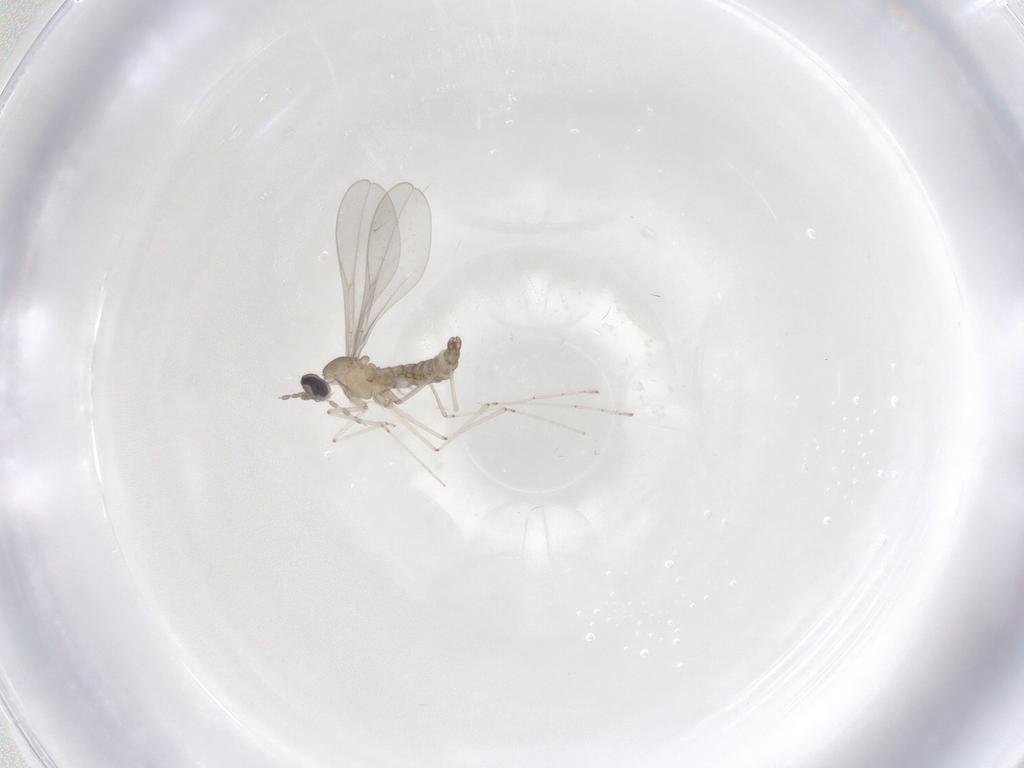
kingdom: Animalia
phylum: Arthropoda
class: Insecta
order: Diptera
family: Cecidomyiidae
